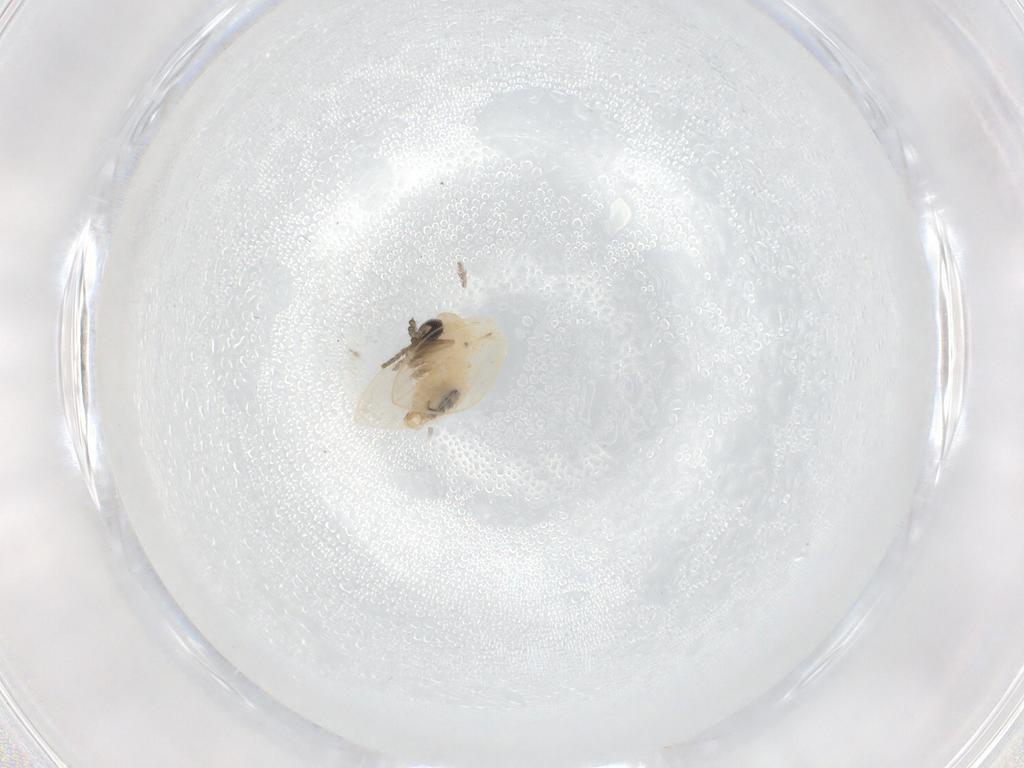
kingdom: Animalia
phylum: Arthropoda
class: Insecta
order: Diptera
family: Psychodidae
